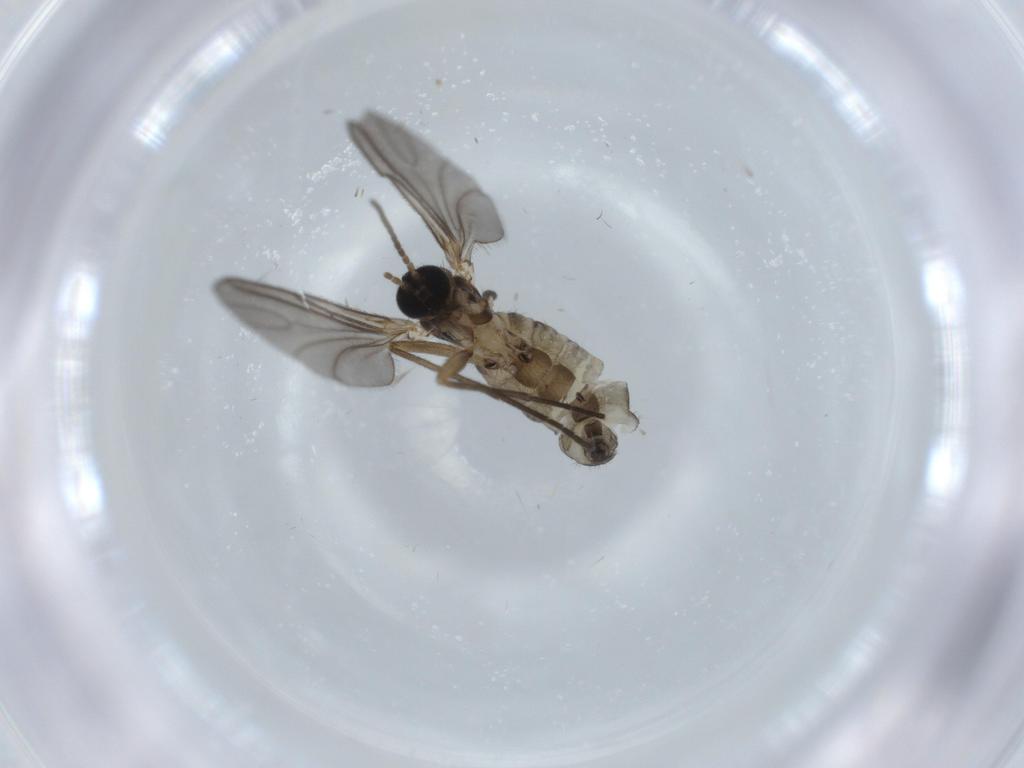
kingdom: Animalia
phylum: Arthropoda
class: Insecta
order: Diptera
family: Sciaridae
